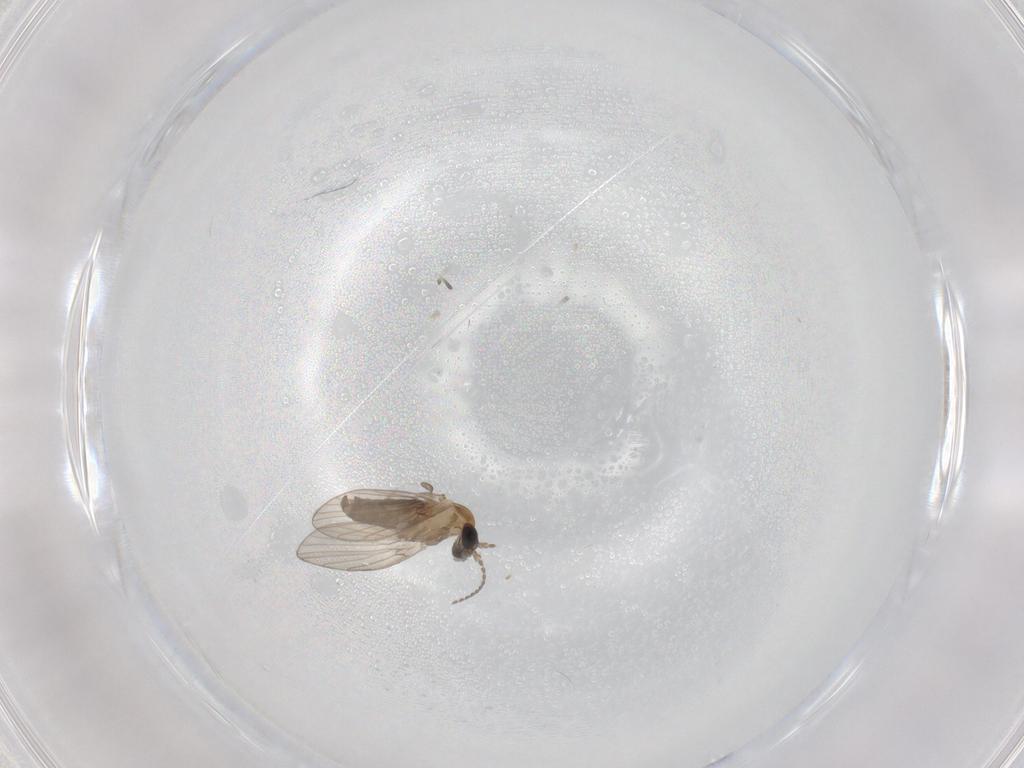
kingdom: Animalia
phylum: Arthropoda
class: Insecta
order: Diptera
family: Psychodidae
